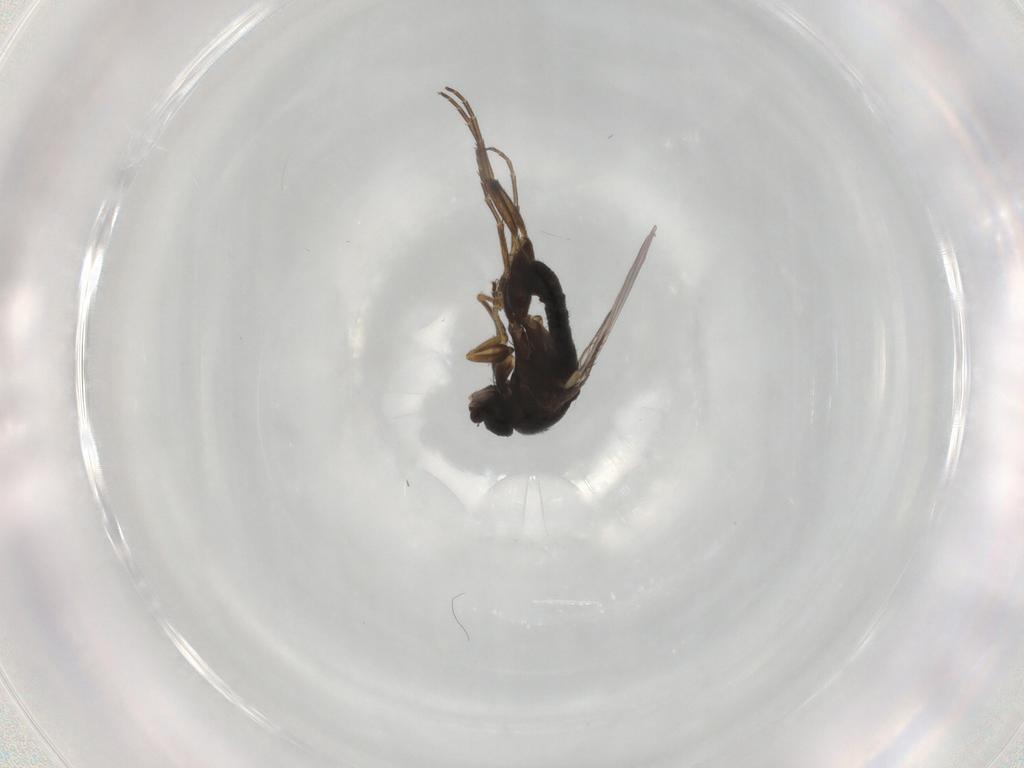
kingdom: Animalia
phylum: Arthropoda
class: Insecta
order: Diptera
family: Phoridae
